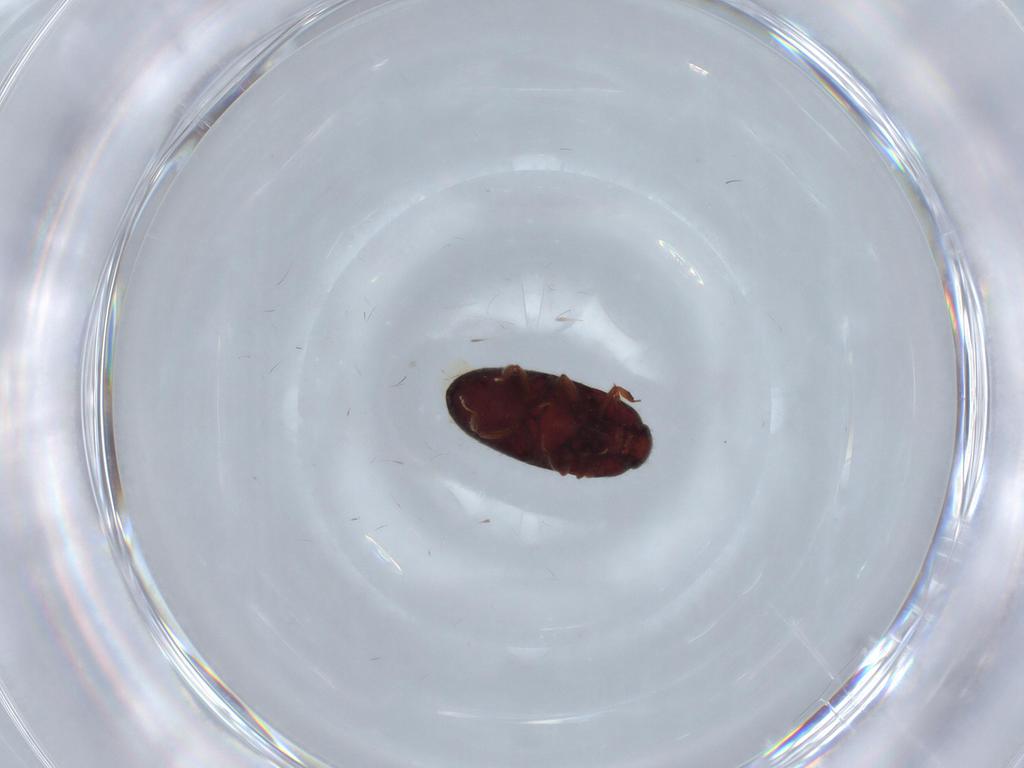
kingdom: Animalia
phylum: Arthropoda
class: Insecta
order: Coleoptera
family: Throscidae
